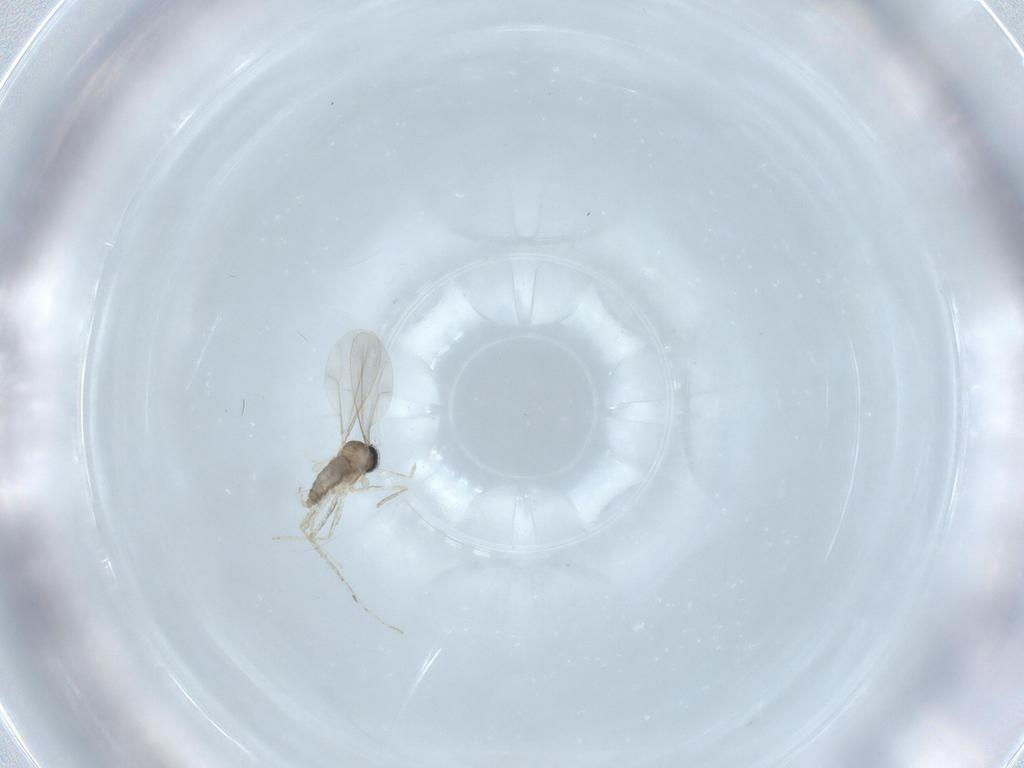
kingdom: Animalia
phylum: Arthropoda
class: Insecta
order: Diptera
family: Cecidomyiidae
